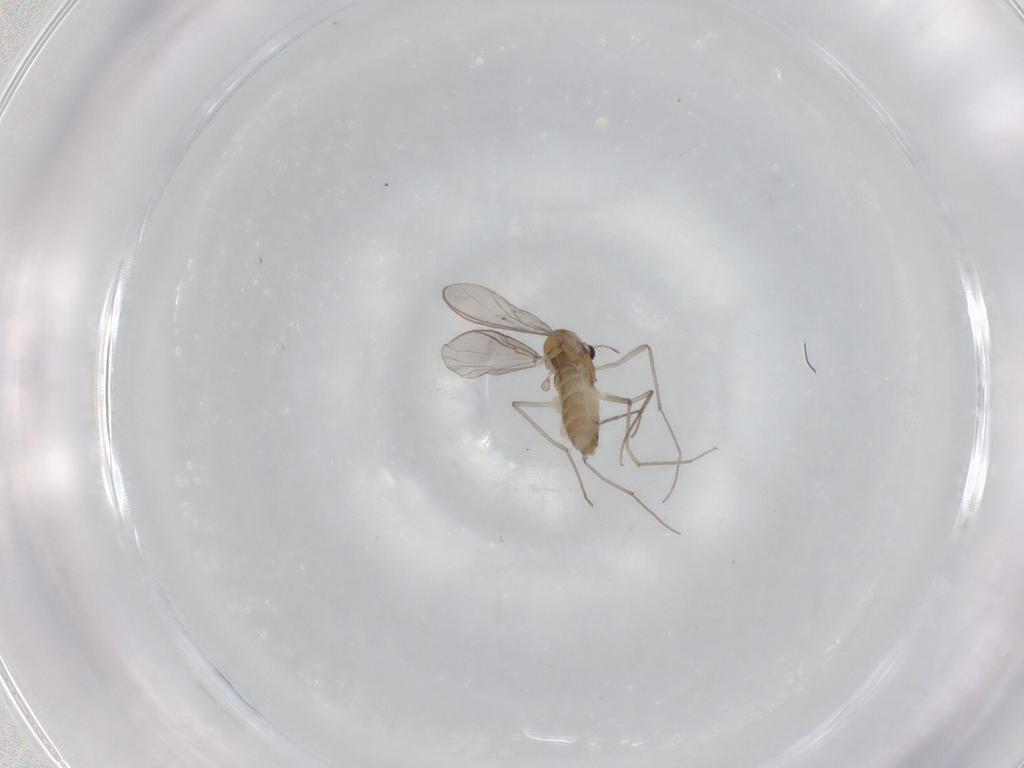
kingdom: Animalia
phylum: Arthropoda
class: Insecta
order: Diptera
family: Chironomidae
